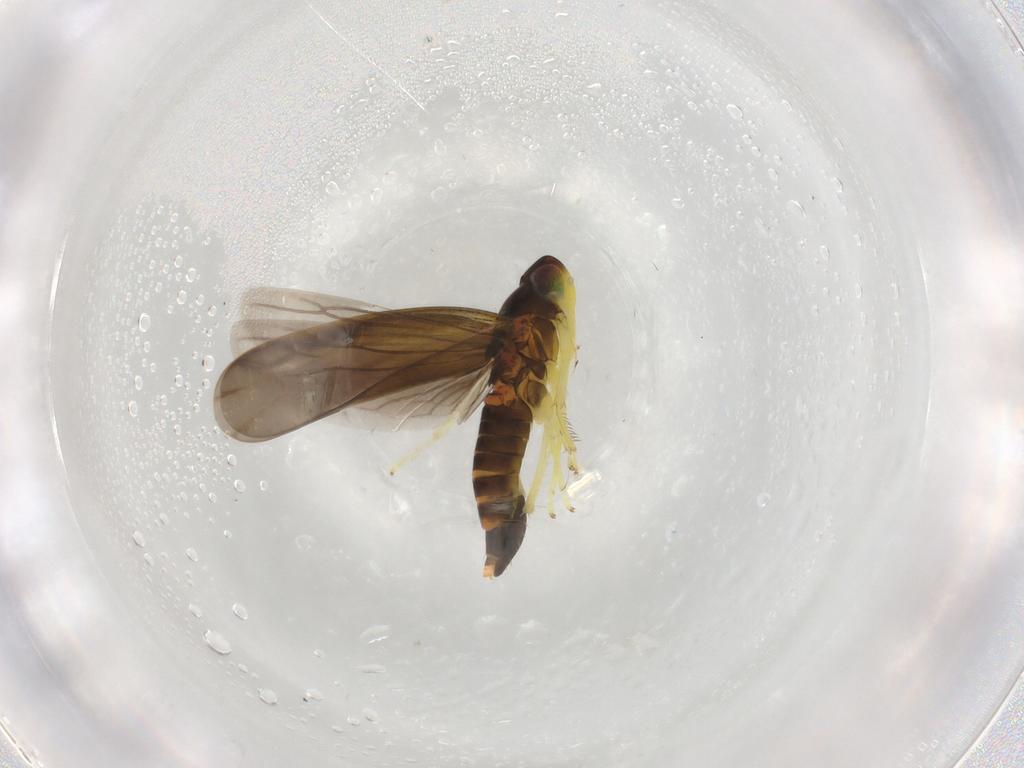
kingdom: Animalia
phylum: Arthropoda
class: Insecta
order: Hemiptera
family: Cicadellidae
